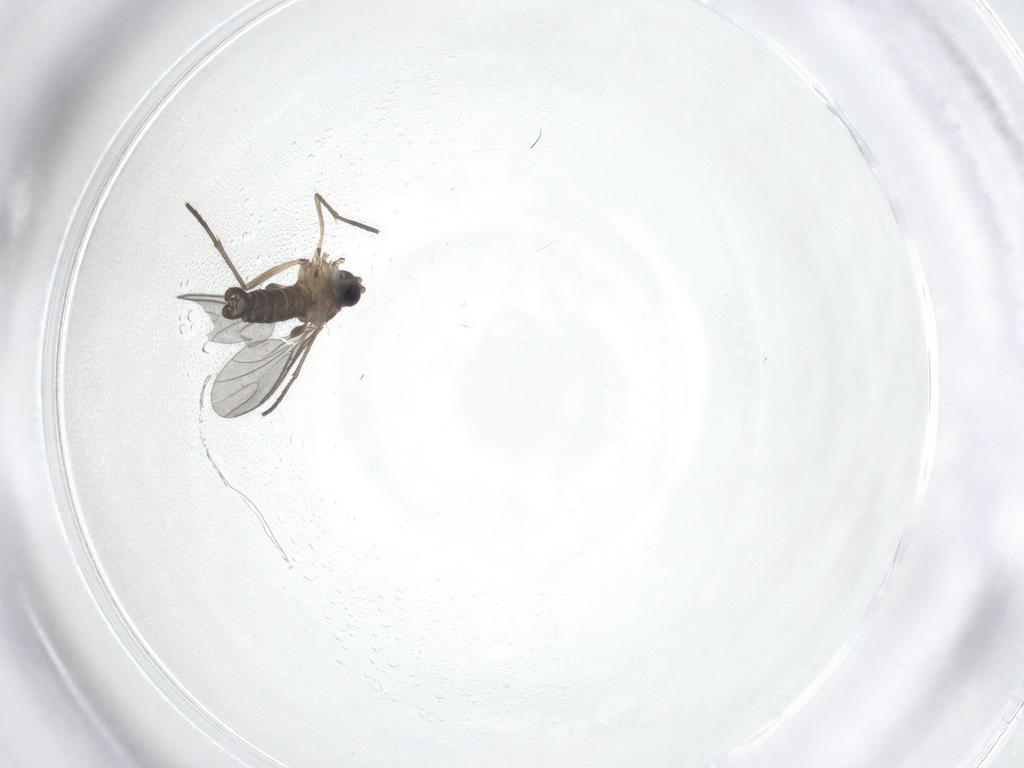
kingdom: Animalia
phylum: Arthropoda
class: Insecta
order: Diptera
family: Sciaridae
